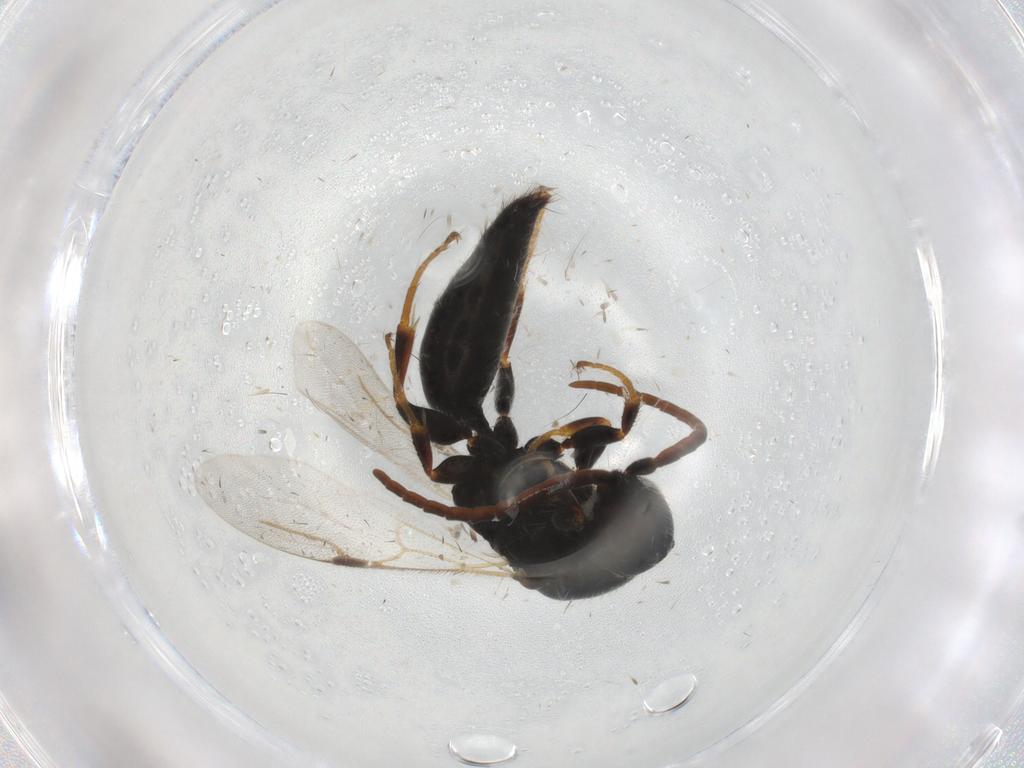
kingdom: Animalia
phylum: Arthropoda
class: Insecta
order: Hymenoptera
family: Bethylidae
